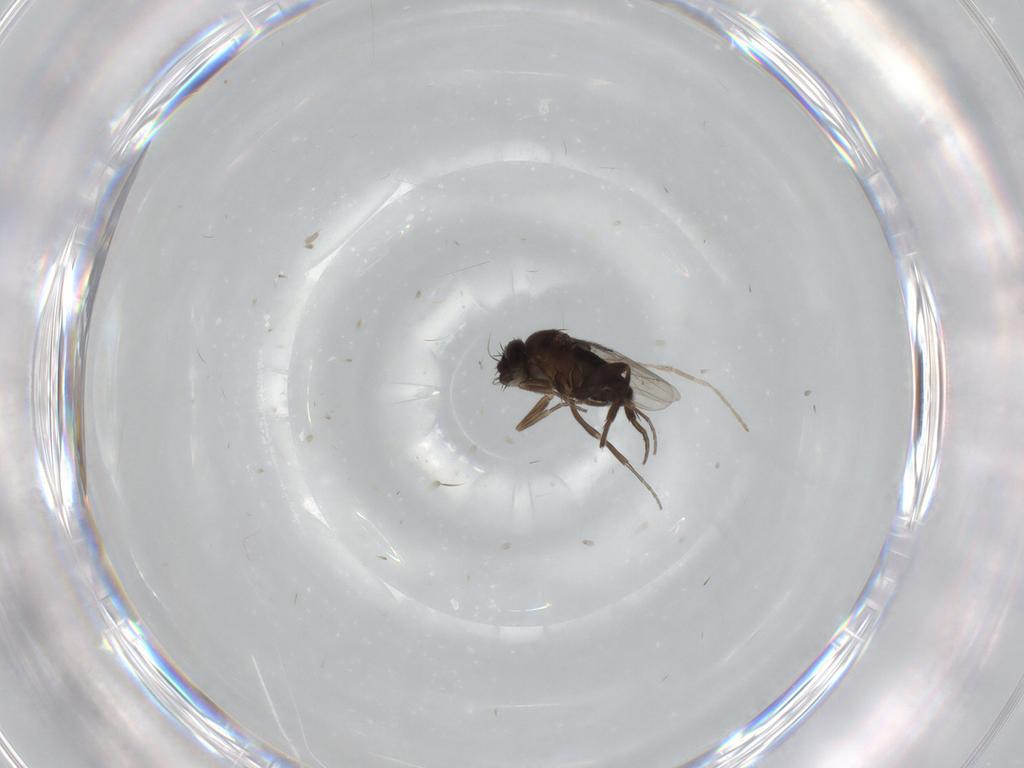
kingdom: Animalia
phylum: Arthropoda
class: Insecta
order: Diptera
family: Phoridae
